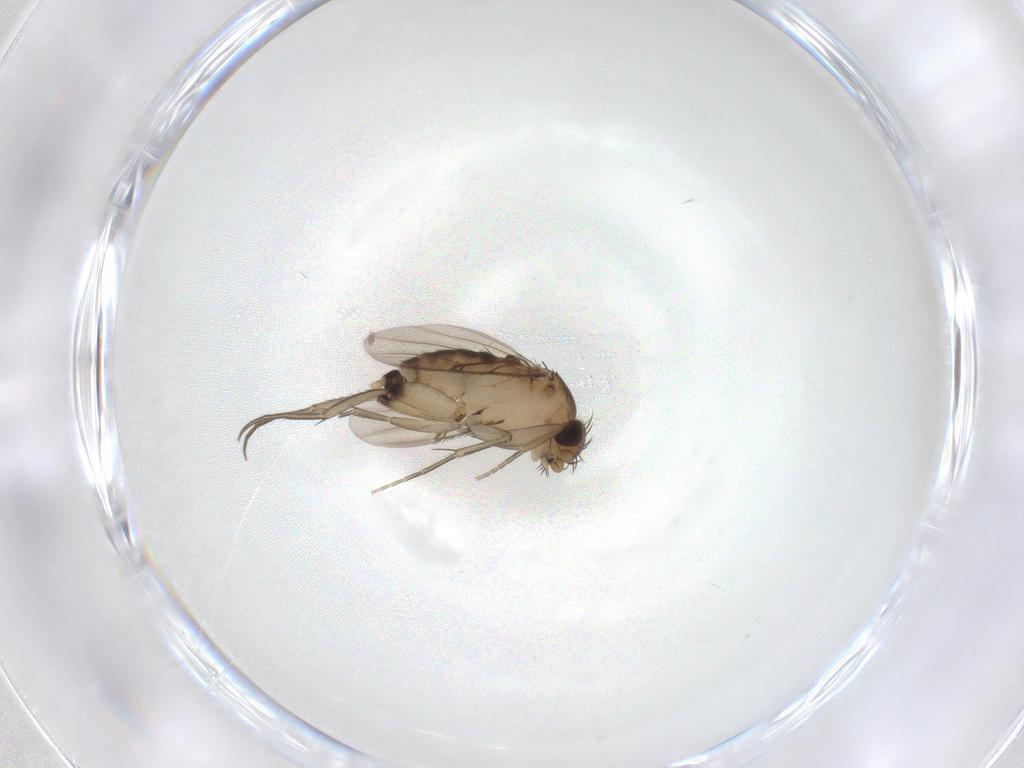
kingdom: Animalia
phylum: Arthropoda
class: Insecta
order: Diptera
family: Phoridae
